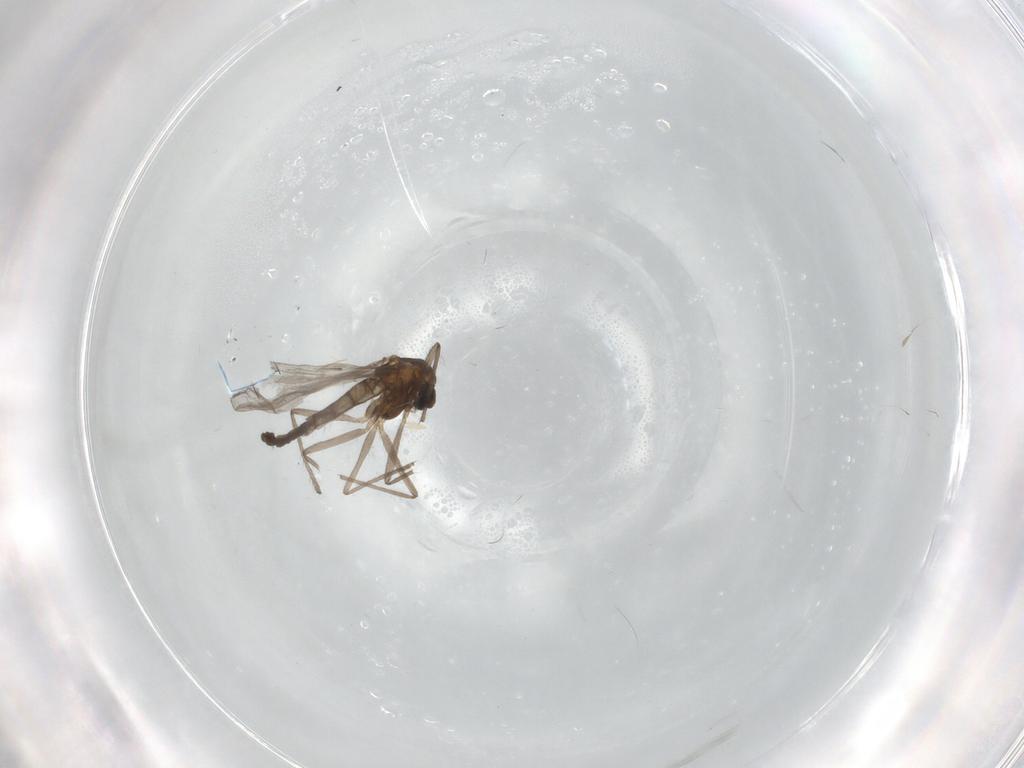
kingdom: Animalia
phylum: Arthropoda
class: Insecta
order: Diptera
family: Chironomidae
